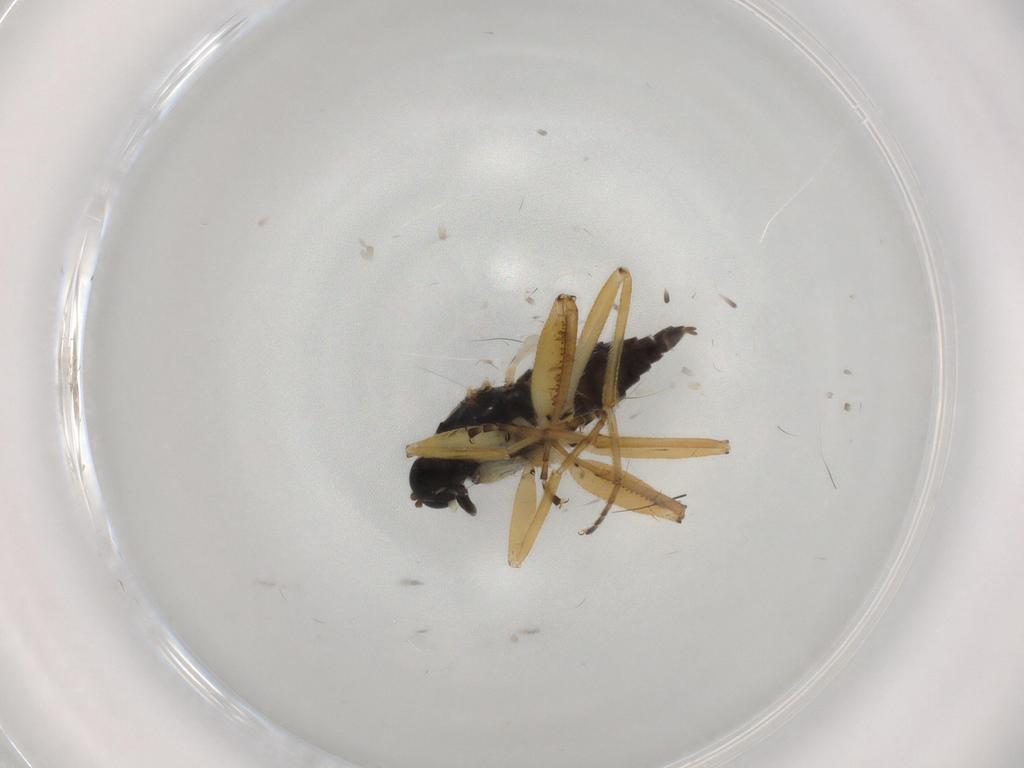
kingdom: Animalia
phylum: Arthropoda
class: Insecta
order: Diptera
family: Hybotidae
